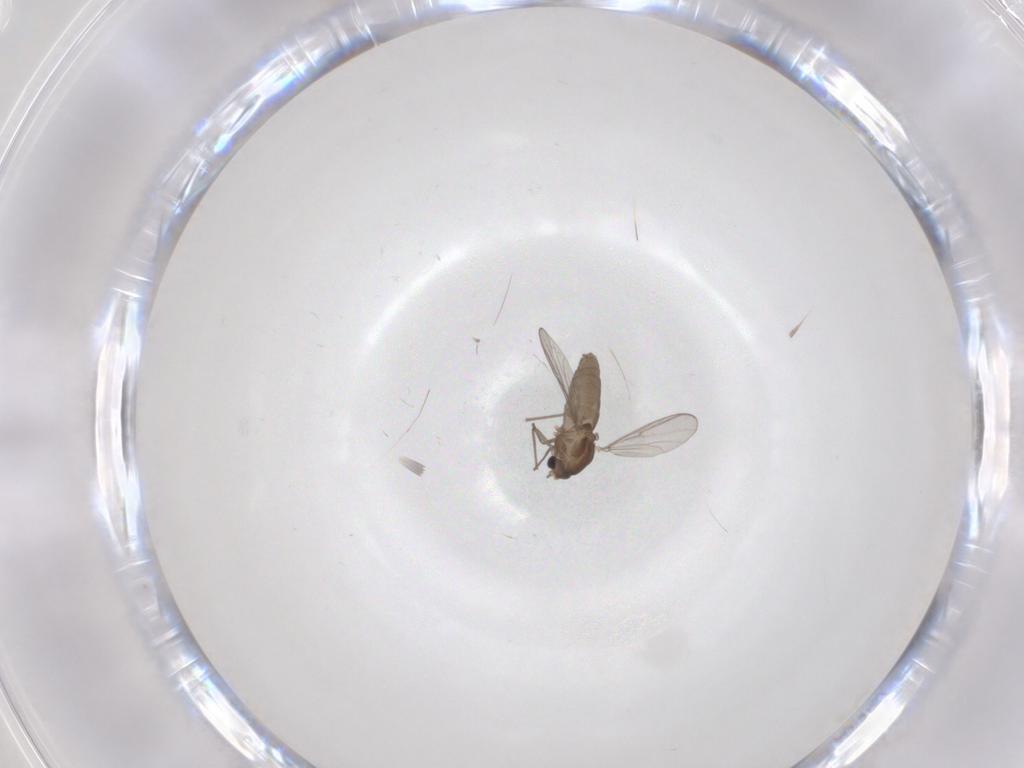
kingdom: Animalia
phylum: Arthropoda
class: Insecta
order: Diptera
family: Chironomidae
